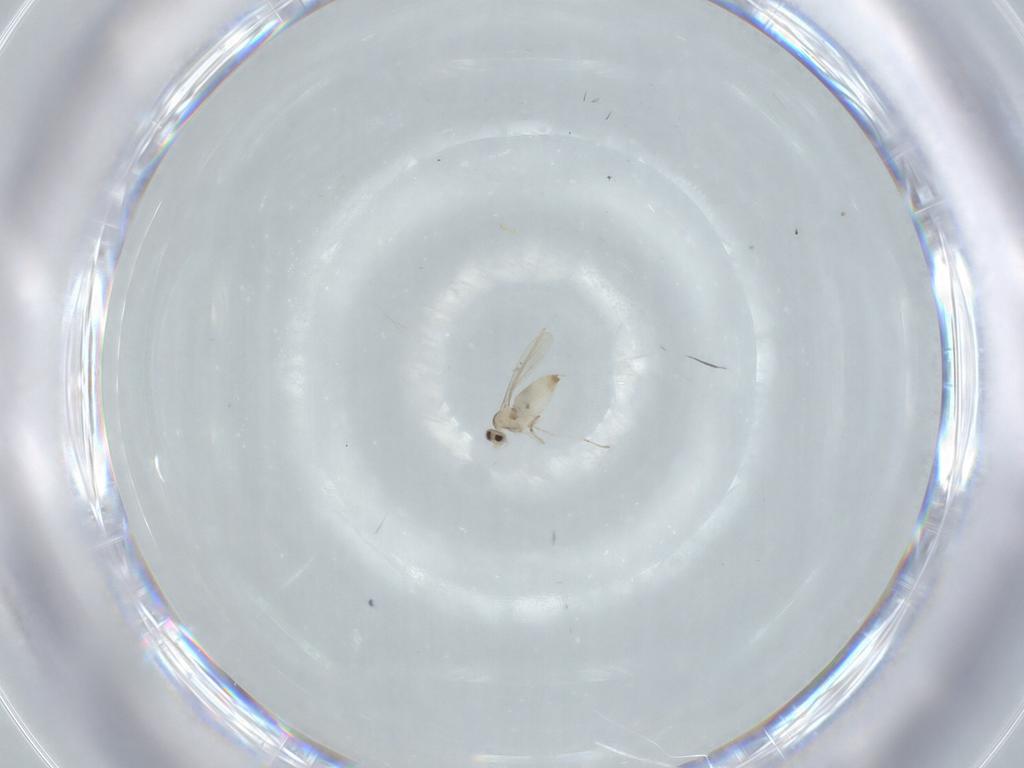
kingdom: Animalia
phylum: Arthropoda
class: Insecta
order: Diptera
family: Cecidomyiidae
